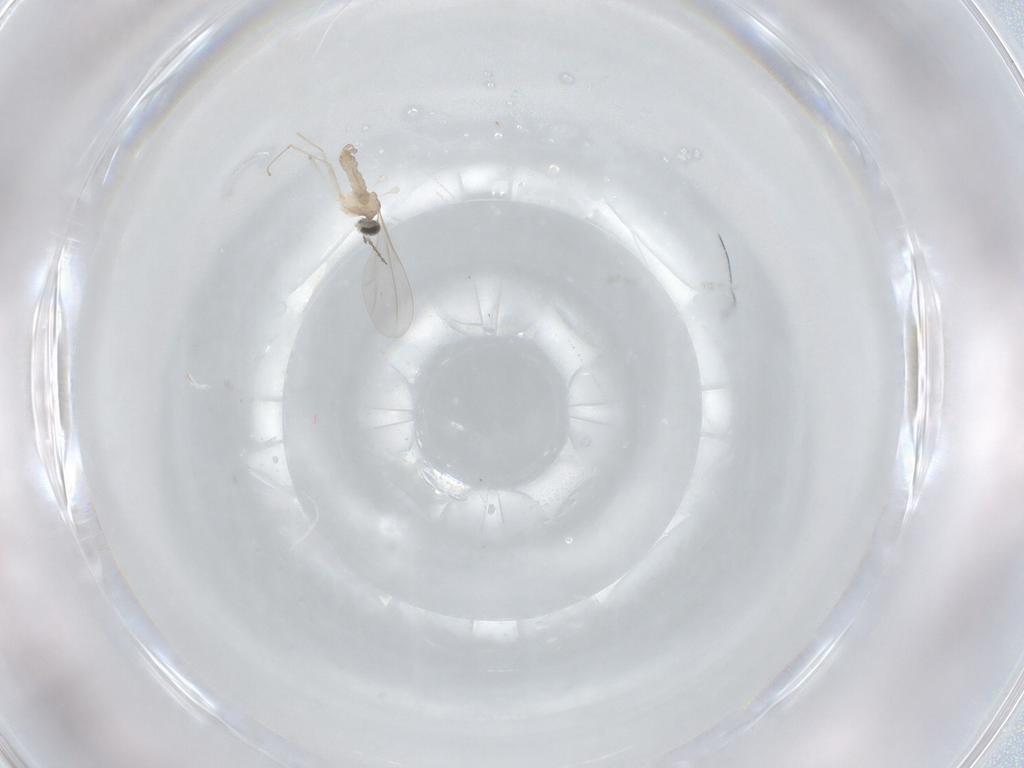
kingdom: Animalia
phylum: Arthropoda
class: Insecta
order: Diptera
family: Cecidomyiidae
